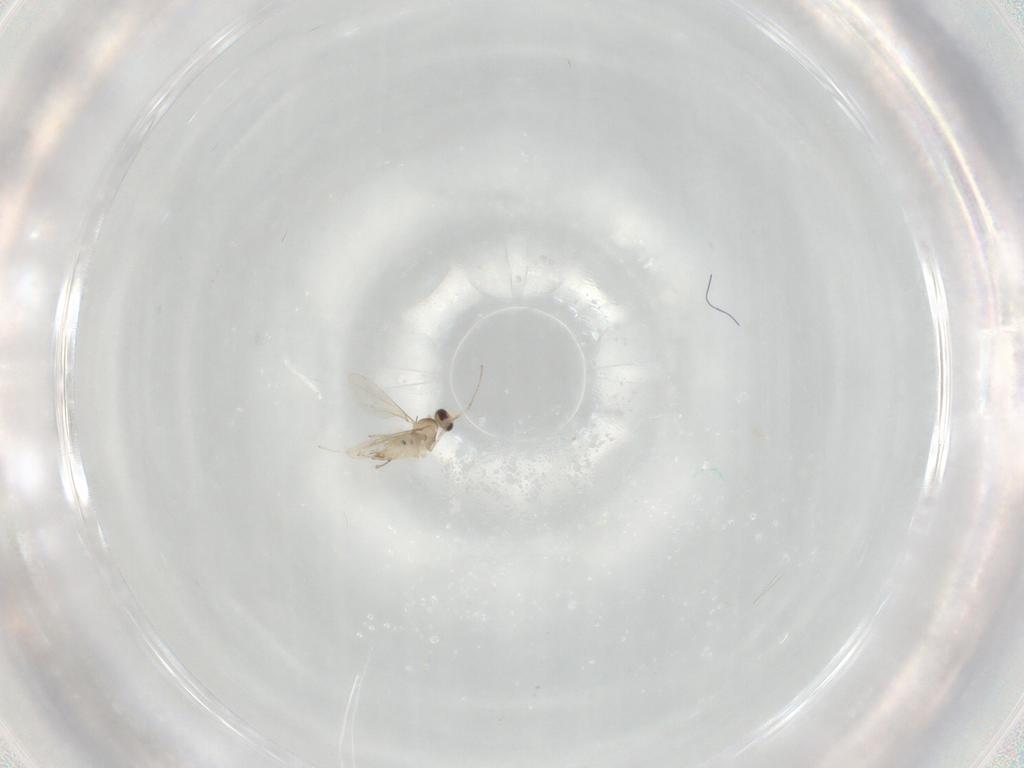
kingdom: Animalia
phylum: Arthropoda
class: Insecta
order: Diptera
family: Cecidomyiidae
